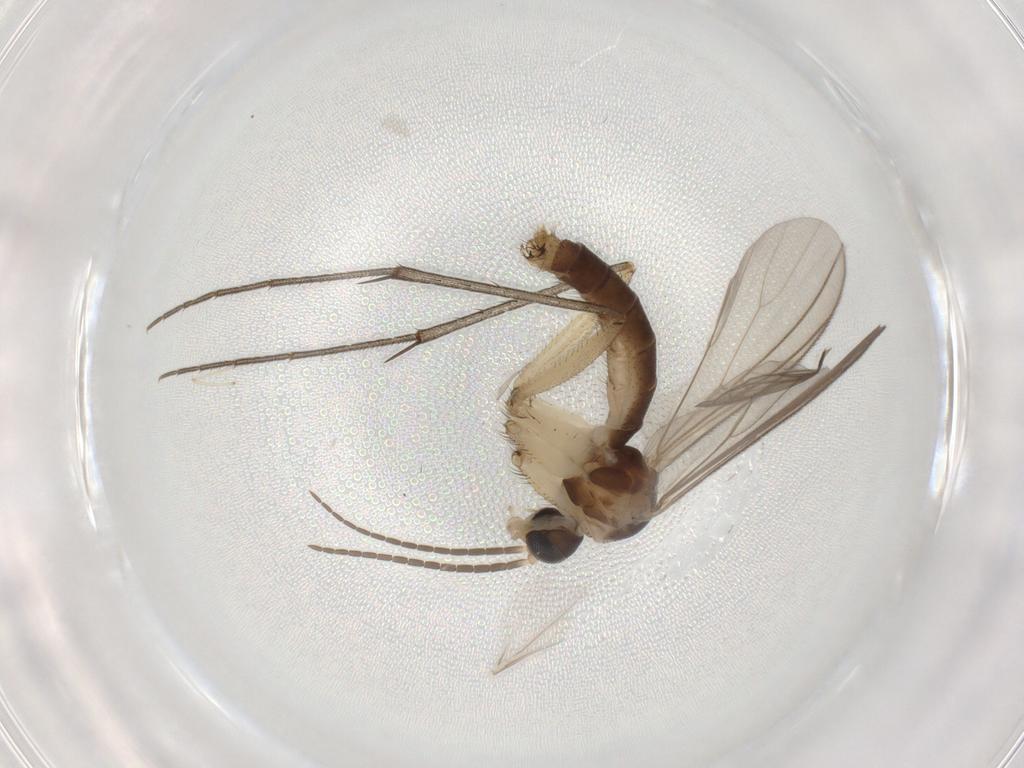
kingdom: Animalia
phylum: Arthropoda
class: Insecta
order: Diptera
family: Mycetophilidae
